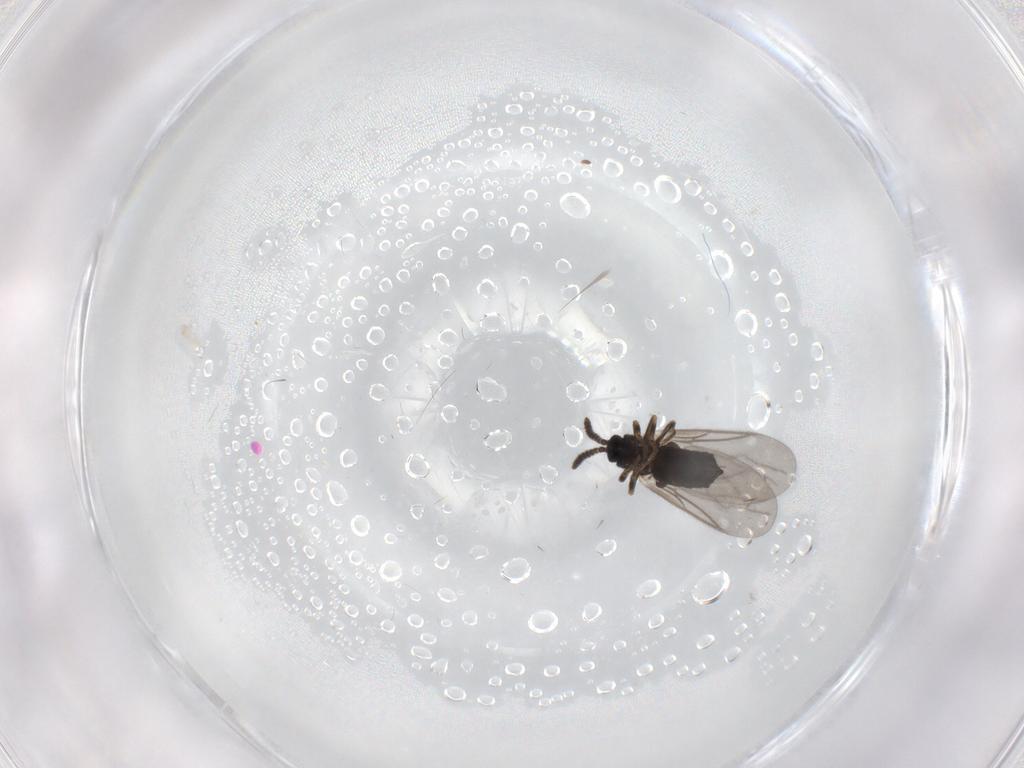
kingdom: Animalia
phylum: Arthropoda
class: Insecta
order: Diptera
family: Scatopsidae
